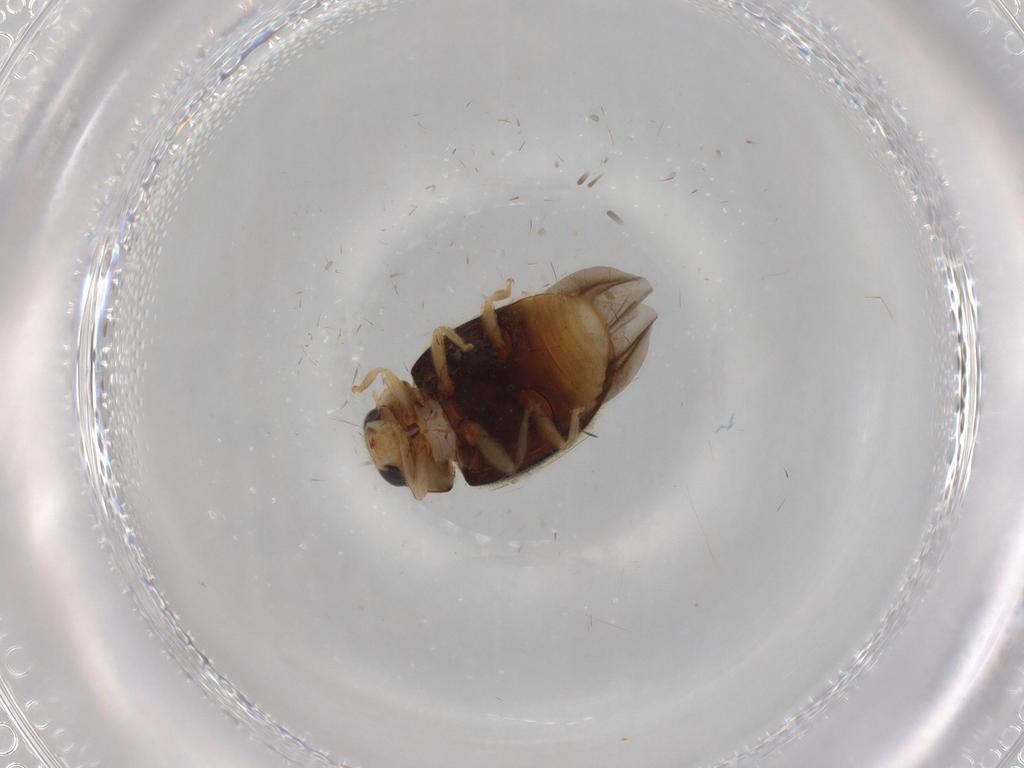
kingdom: Animalia
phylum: Arthropoda
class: Insecta
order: Coleoptera
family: Coccinellidae
